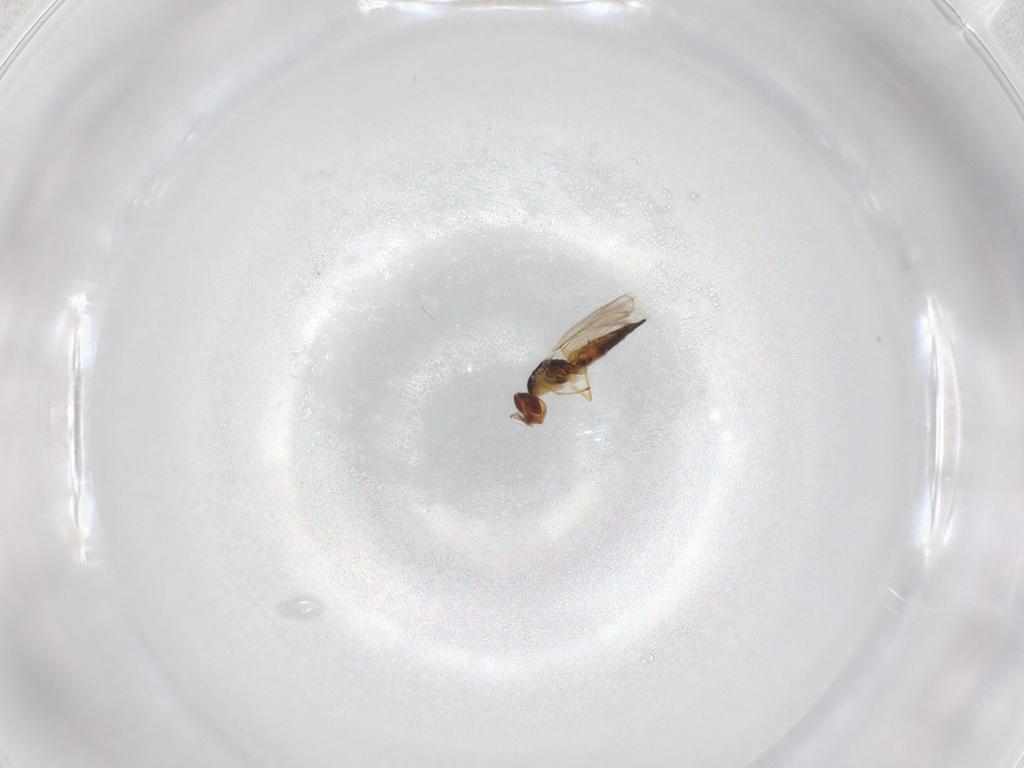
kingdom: Animalia
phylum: Arthropoda
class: Insecta
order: Hymenoptera
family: Eulophidae
